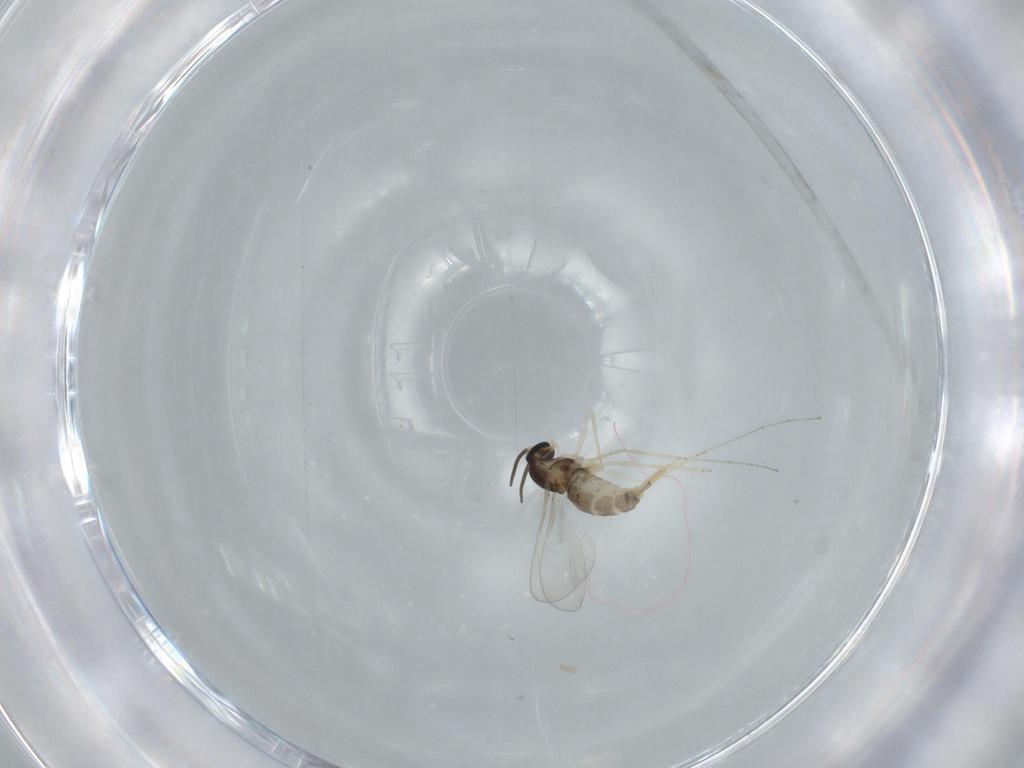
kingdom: Animalia
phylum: Arthropoda
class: Insecta
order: Diptera
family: Cecidomyiidae
